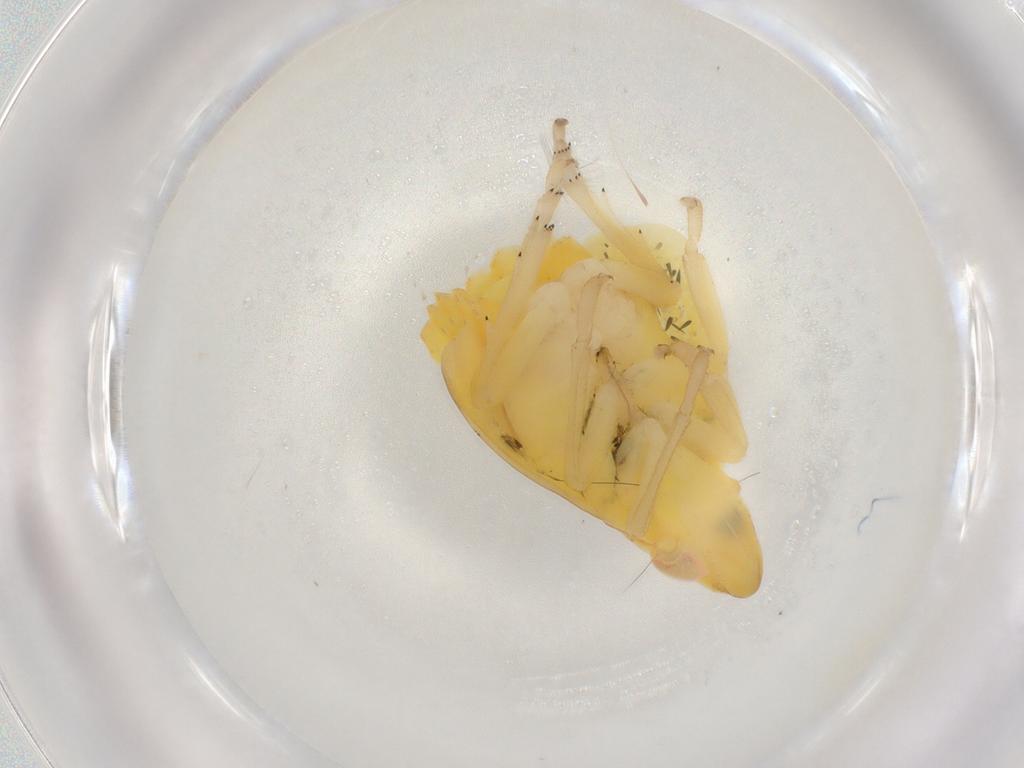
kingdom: Animalia
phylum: Arthropoda
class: Insecta
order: Hemiptera
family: Tropiduchidae
